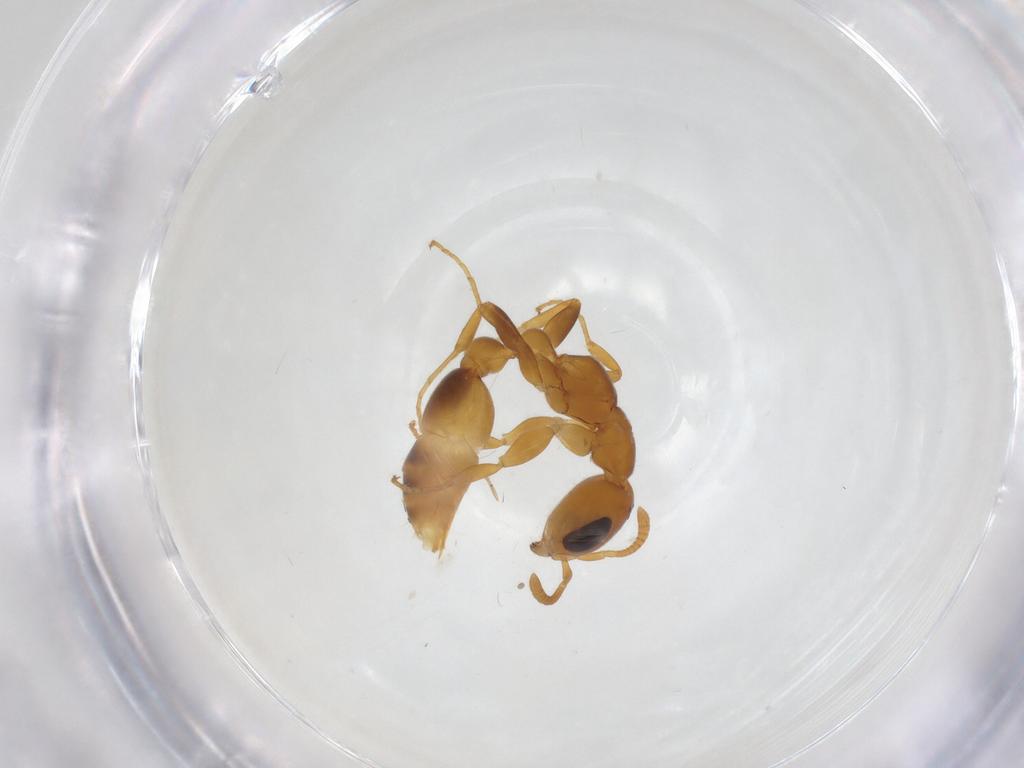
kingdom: Animalia
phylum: Arthropoda
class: Insecta
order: Hymenoptera
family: Formicidae
